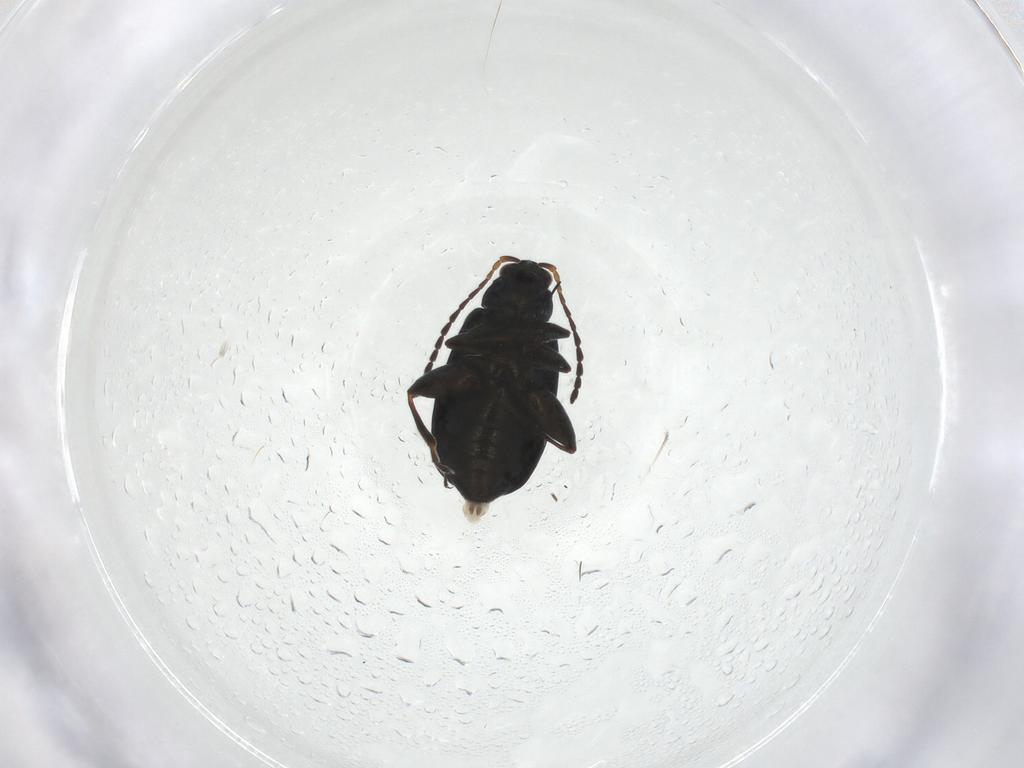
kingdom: Animalia
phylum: Arthropoda
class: Insecta
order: Coleoptera
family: Chrysomelidae
